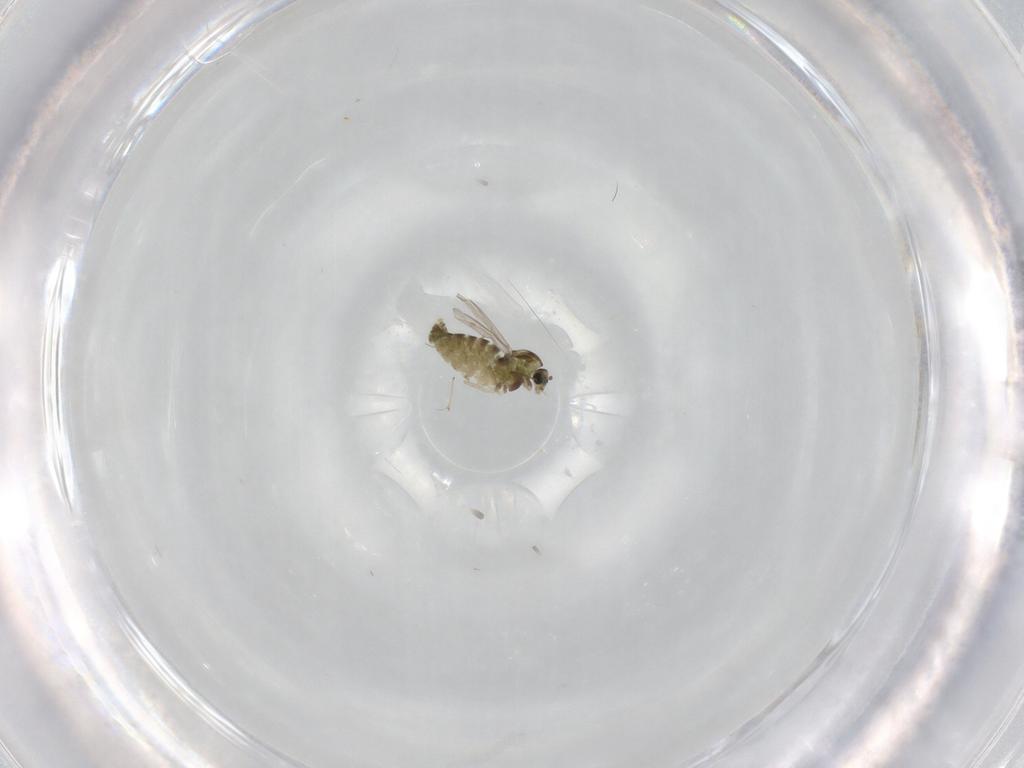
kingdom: Animalia
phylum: Arthropoda
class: Insecta
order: Diptera
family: Chironomidae
